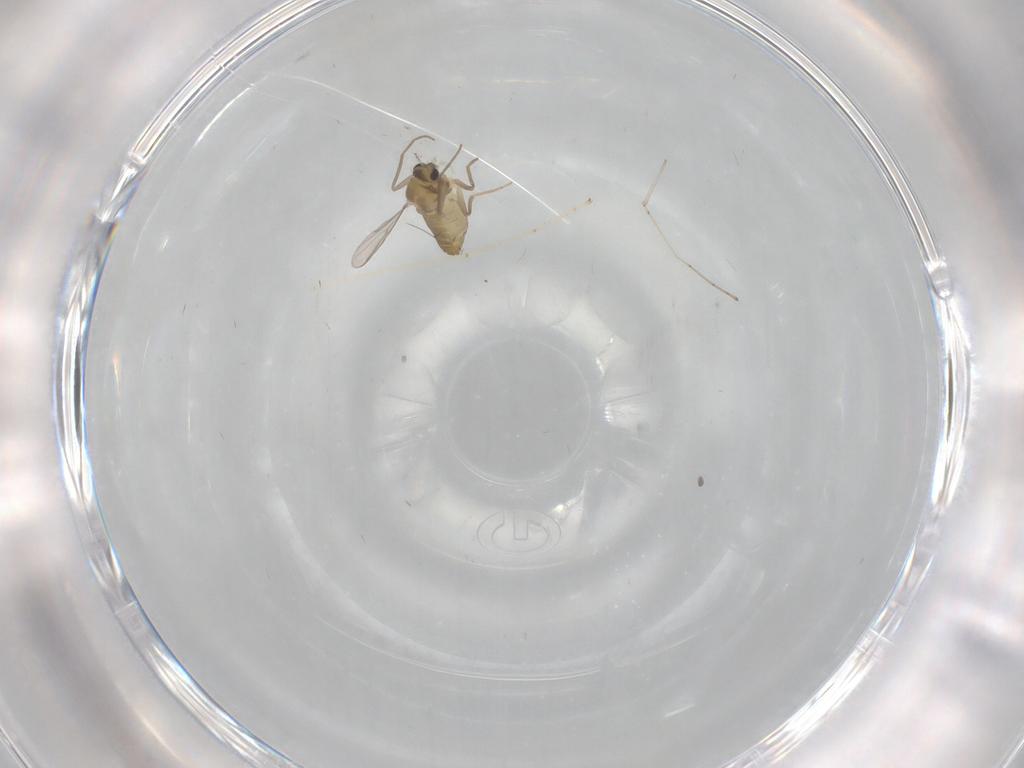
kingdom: Animalia
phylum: Arthropoda
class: Insecta
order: Diptera
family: Chironomidae
